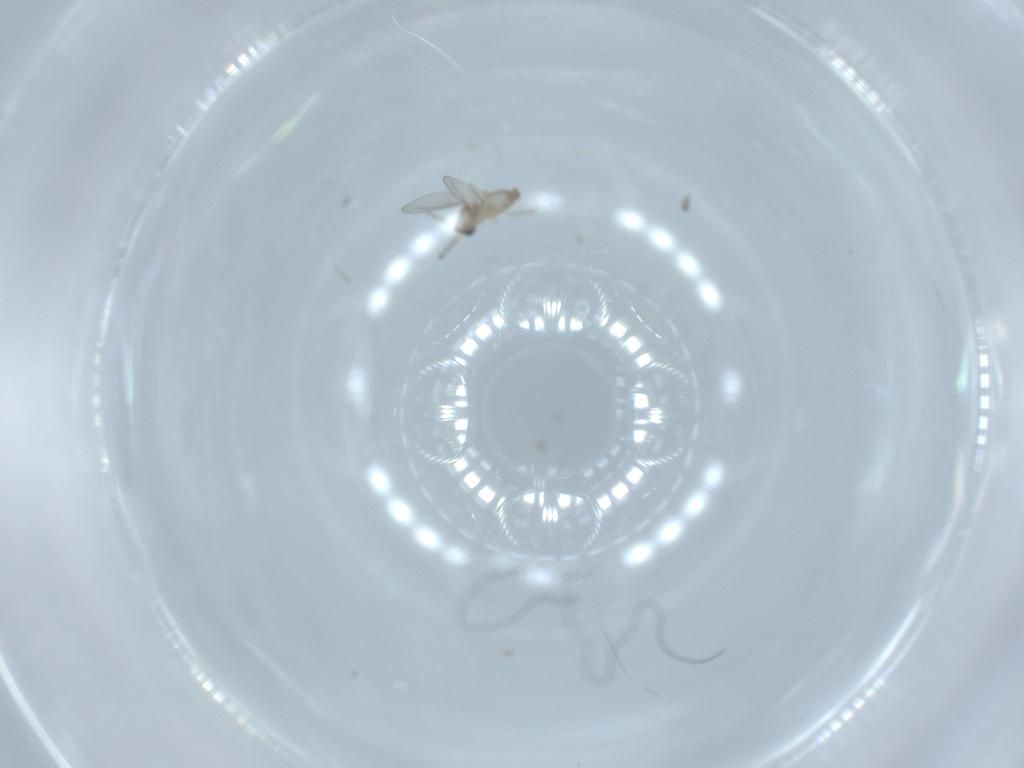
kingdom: Animalia
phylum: Arthropoda
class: Insecta
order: Diptera
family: Cecidomyiidae
